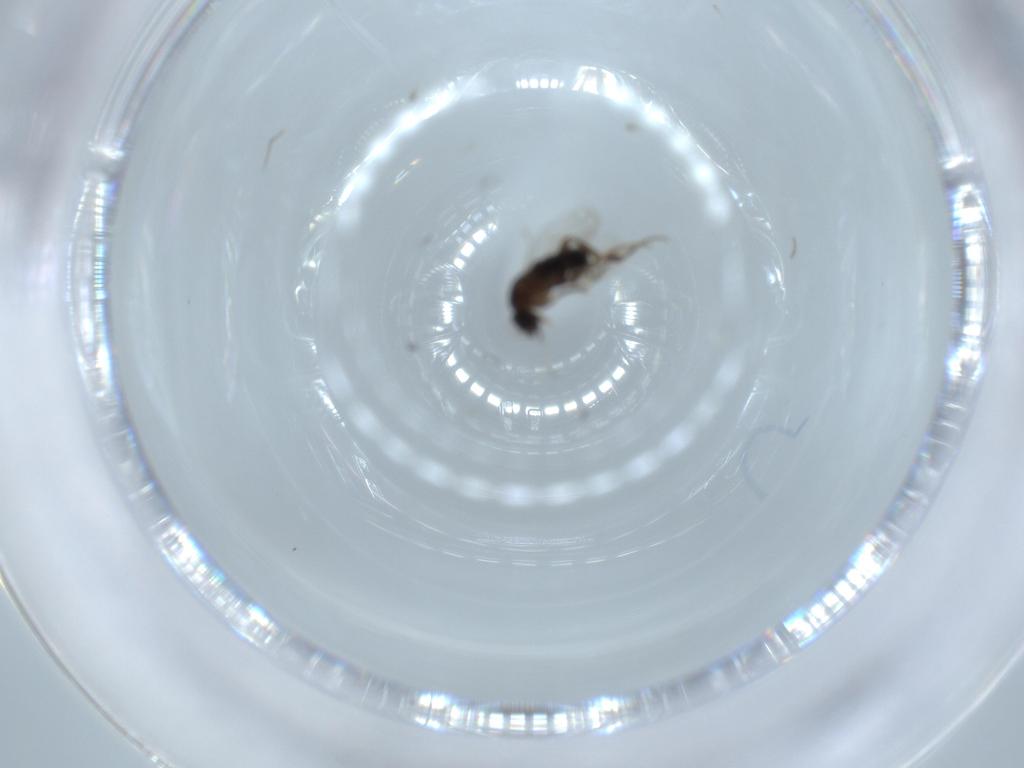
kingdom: Animalia
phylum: Arthropoda
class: Insecta
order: Diptera
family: Phoridae
